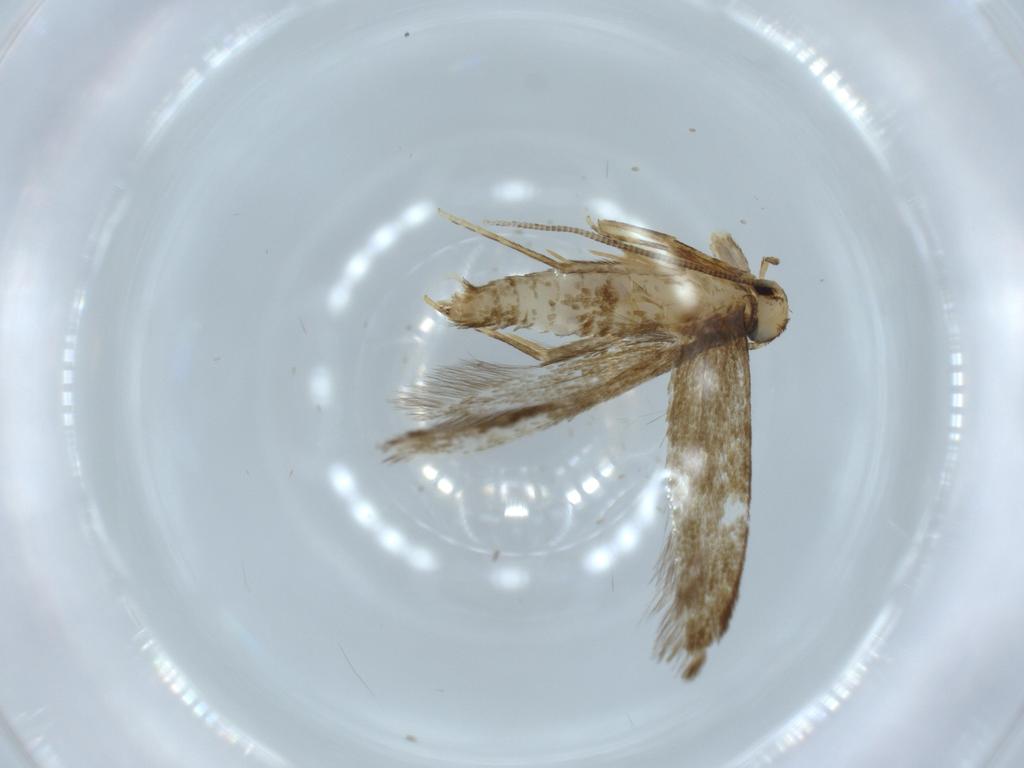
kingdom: Animalia
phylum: Arthropoda
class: Insecta
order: Lepidoptera
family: Tineidae
